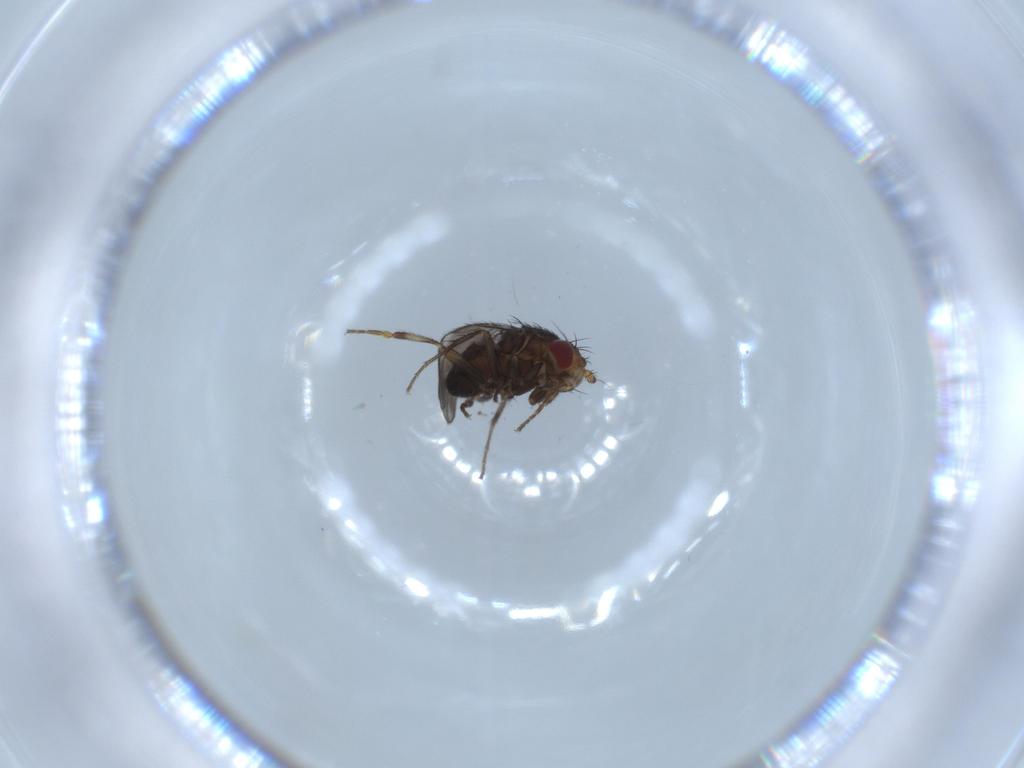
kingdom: Animalia
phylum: Arthropoda
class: Insecta
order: Diptera
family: Sphaeroceridae
